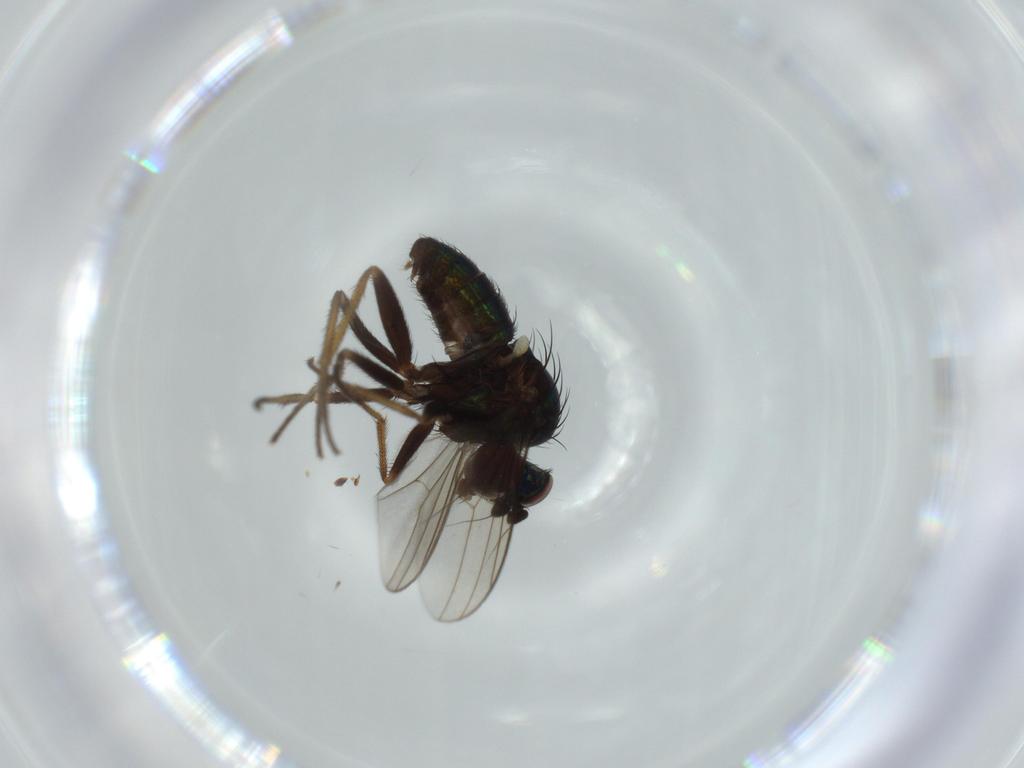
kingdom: Animalia
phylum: Arthropoda
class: Insecta
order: Diptera
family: Dolichopodidae
